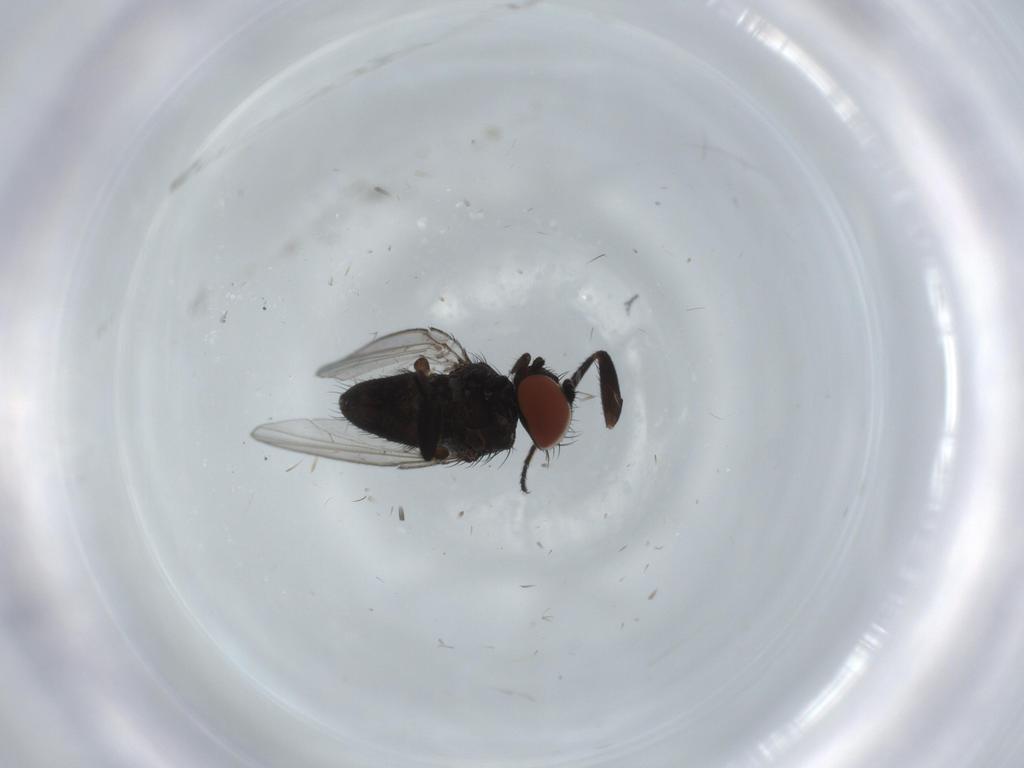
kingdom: Animalia
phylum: Arthropoda
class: Insecta
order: Diptera
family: Milichiidae
